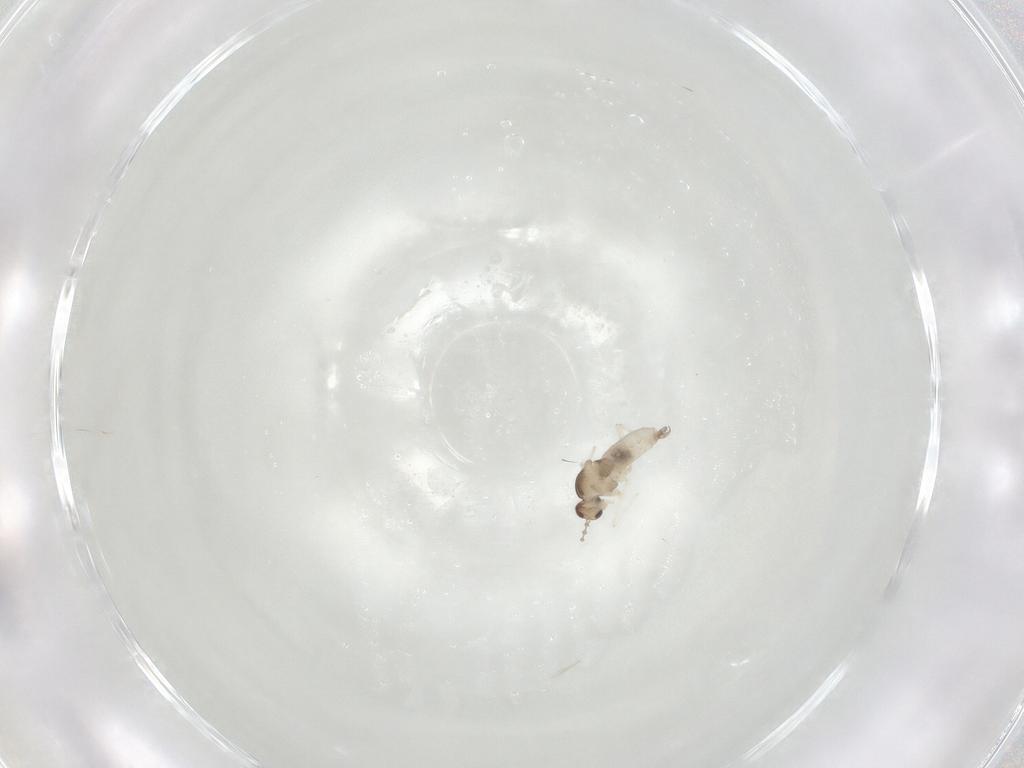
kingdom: Animalia
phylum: Arthropoda
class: Insecta
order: Diptera
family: Cecidomyiidae
